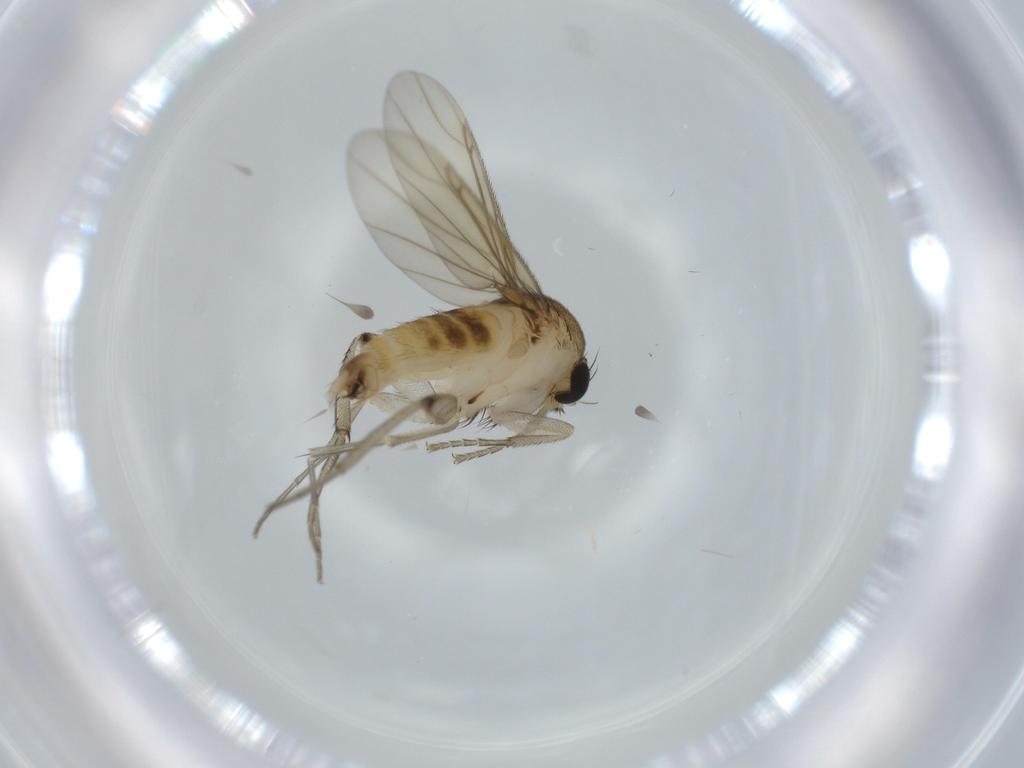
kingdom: Animalia
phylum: Arthropoda
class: Insecta
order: Diptera
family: Phoridae
